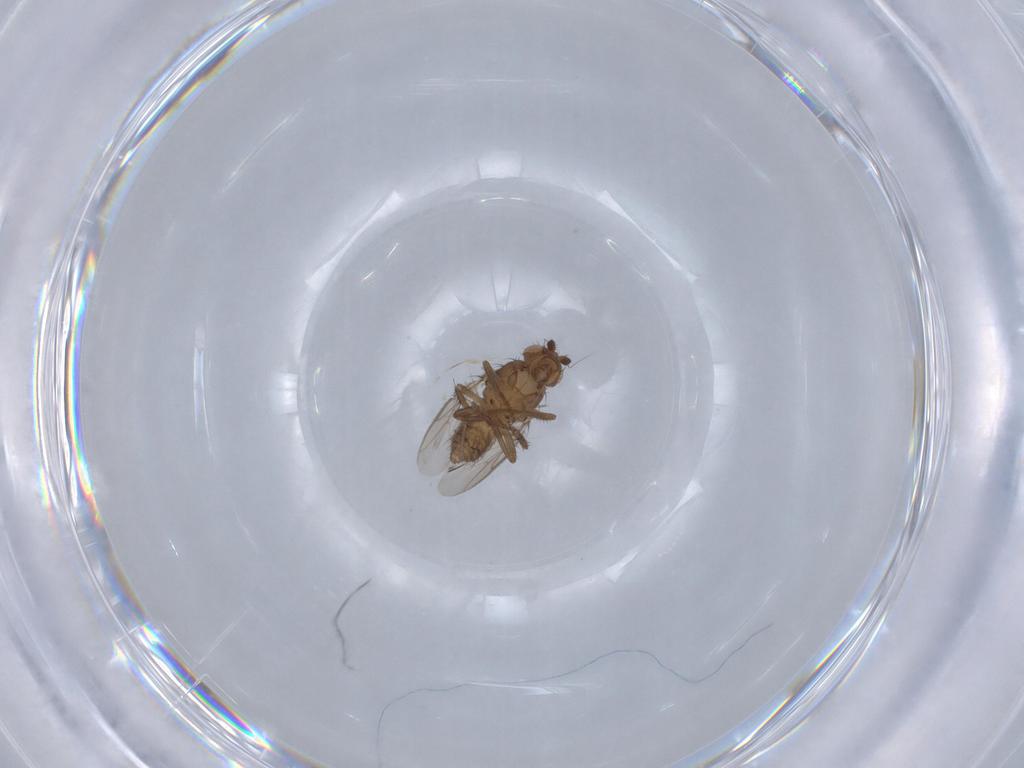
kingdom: Animalia
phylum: Arthropoda
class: Insecta
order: Diptera
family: Sphaeroceridae
